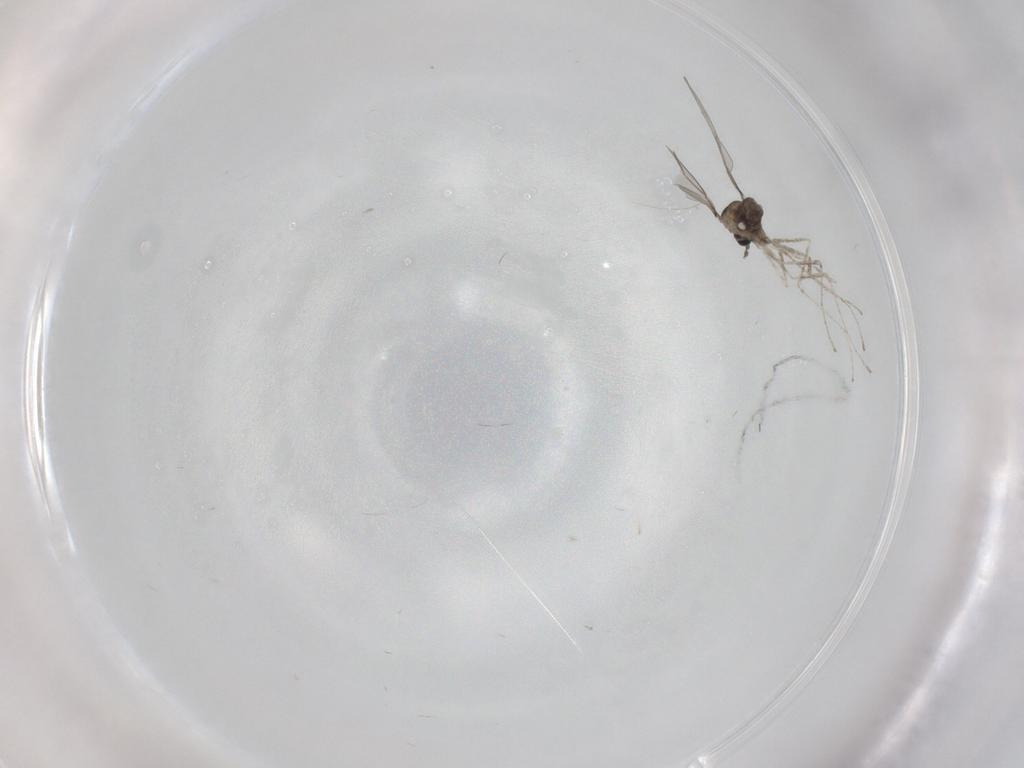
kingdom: Animalia
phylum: Arthropoda
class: Insecta
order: Diptera
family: Cecidomyiidae
